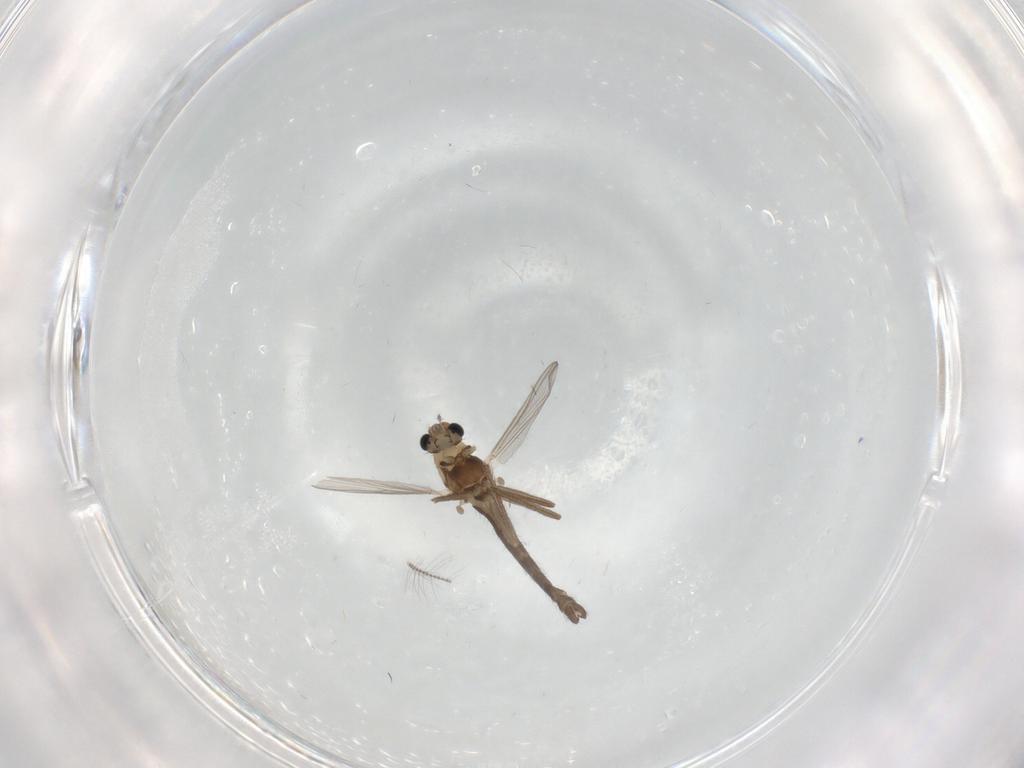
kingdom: Animalia
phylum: Arthropoda
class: Insecta
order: Diptera
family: Chironomidae
